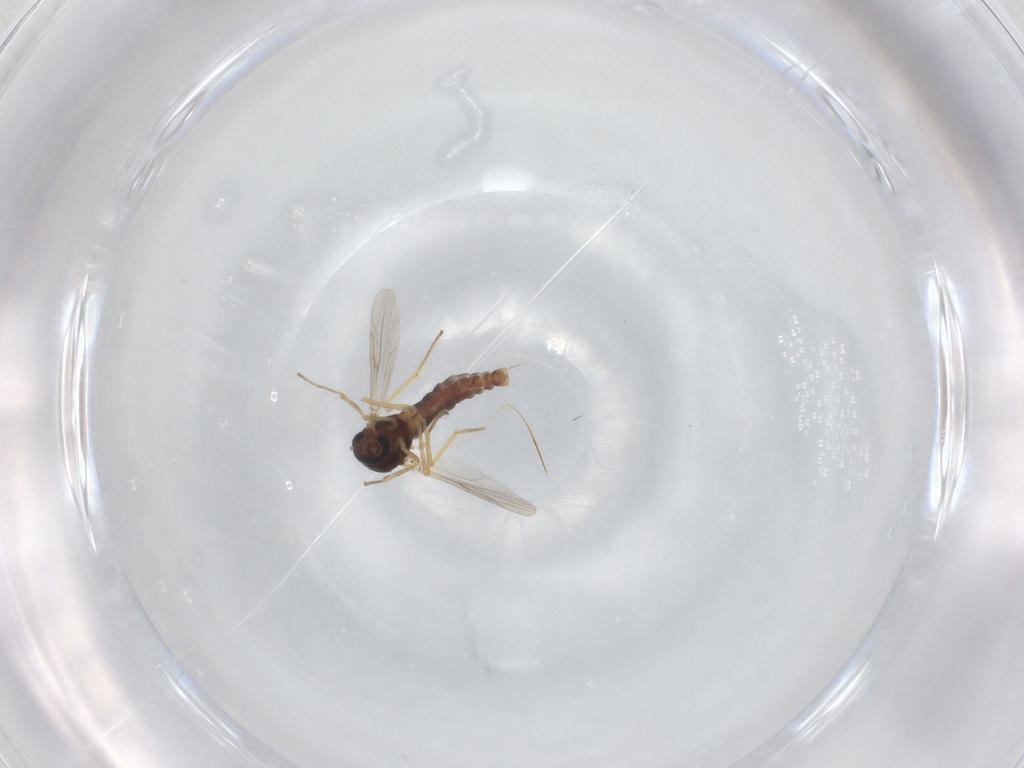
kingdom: Animalia
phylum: Arthropoda
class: Insecta
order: Diptera
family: Ceratopogonidae
